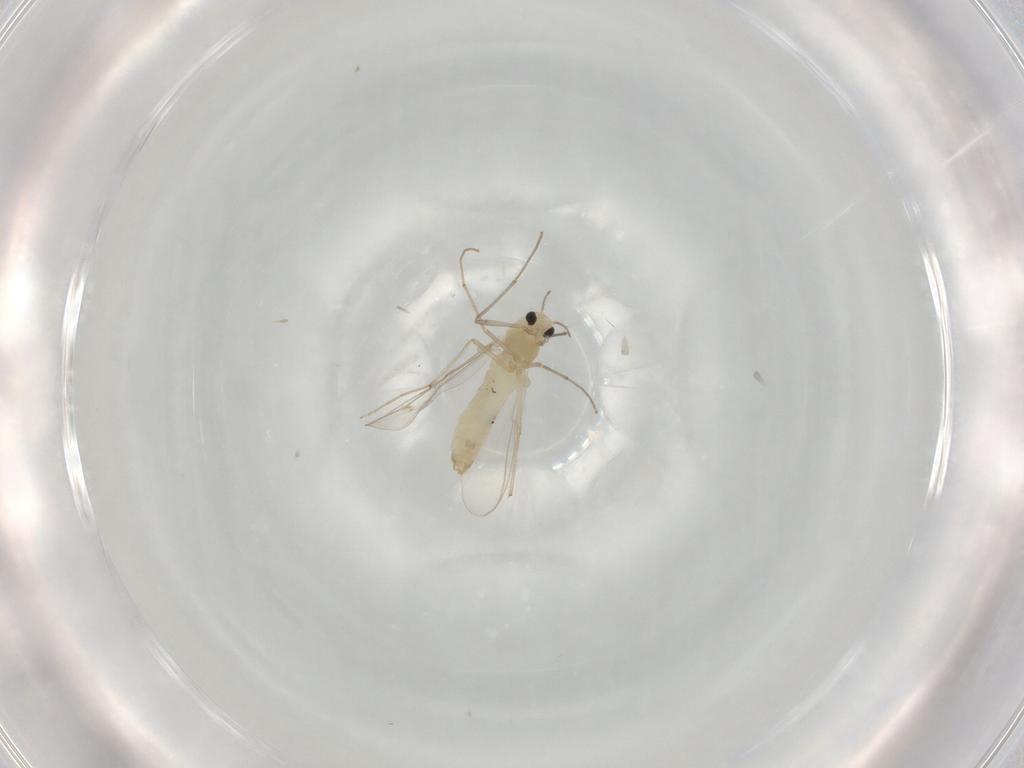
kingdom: Animalia
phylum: Arthropoda
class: Insecta
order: Diptera
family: Chironomidae
